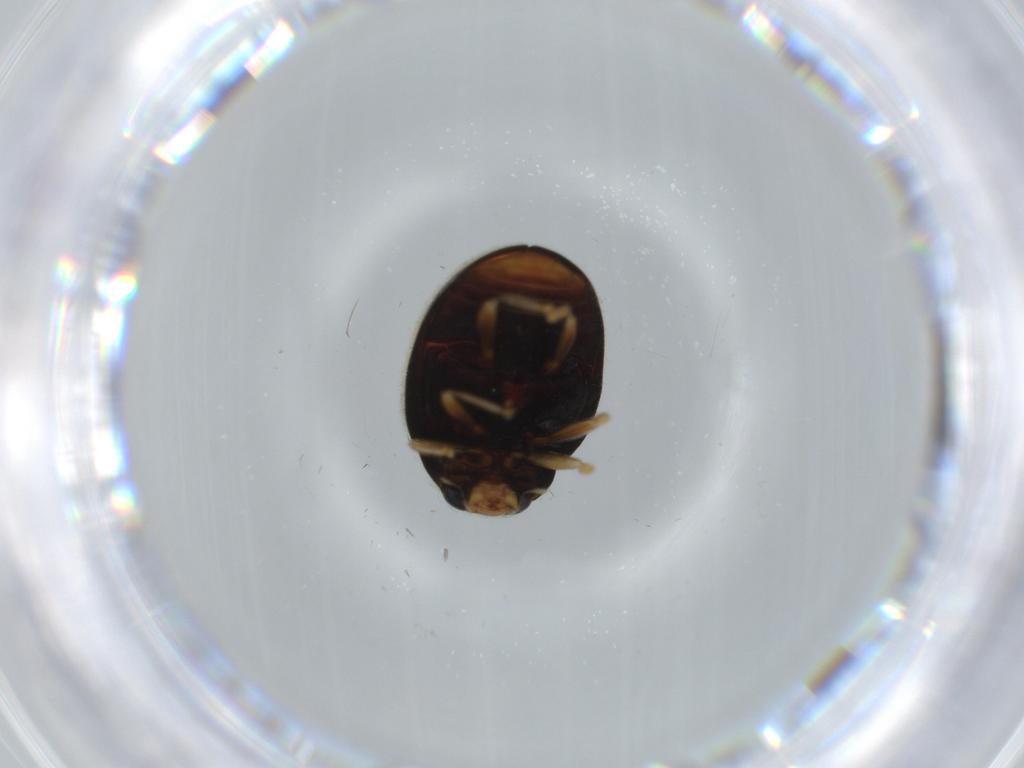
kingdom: Animalia
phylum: Arthropoda
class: Insecta
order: Coleoptera
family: Coccinellidae
